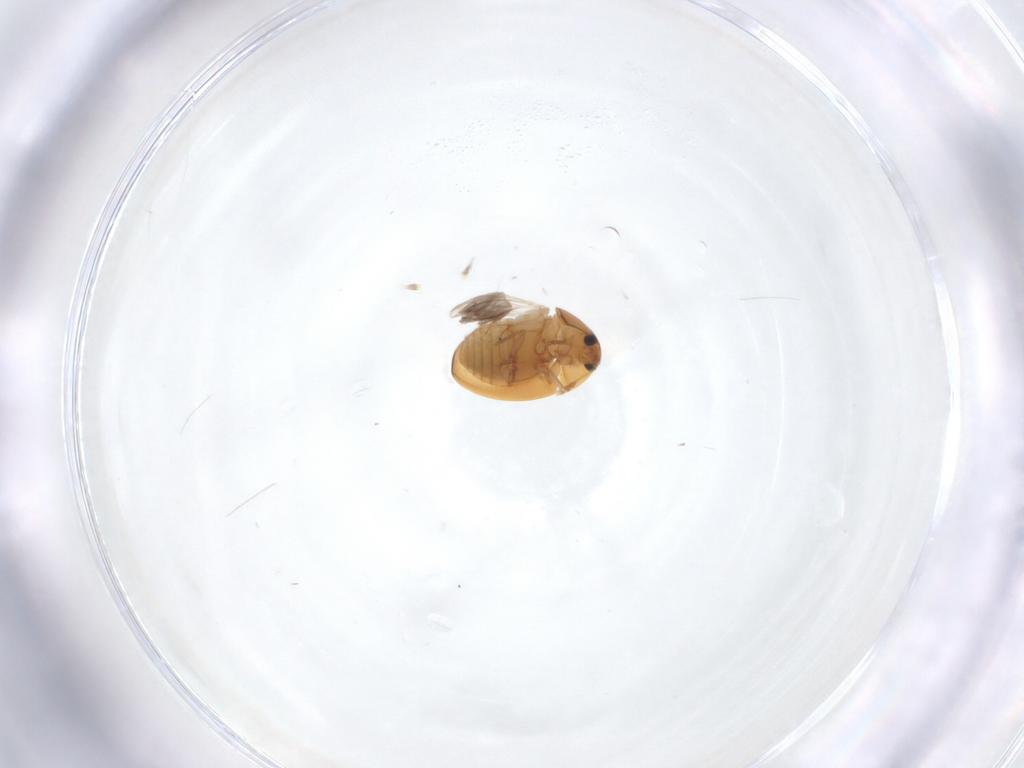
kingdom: Animalia
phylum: Arthropoda
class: Insecta
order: Coleoptera
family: Phalacridae
